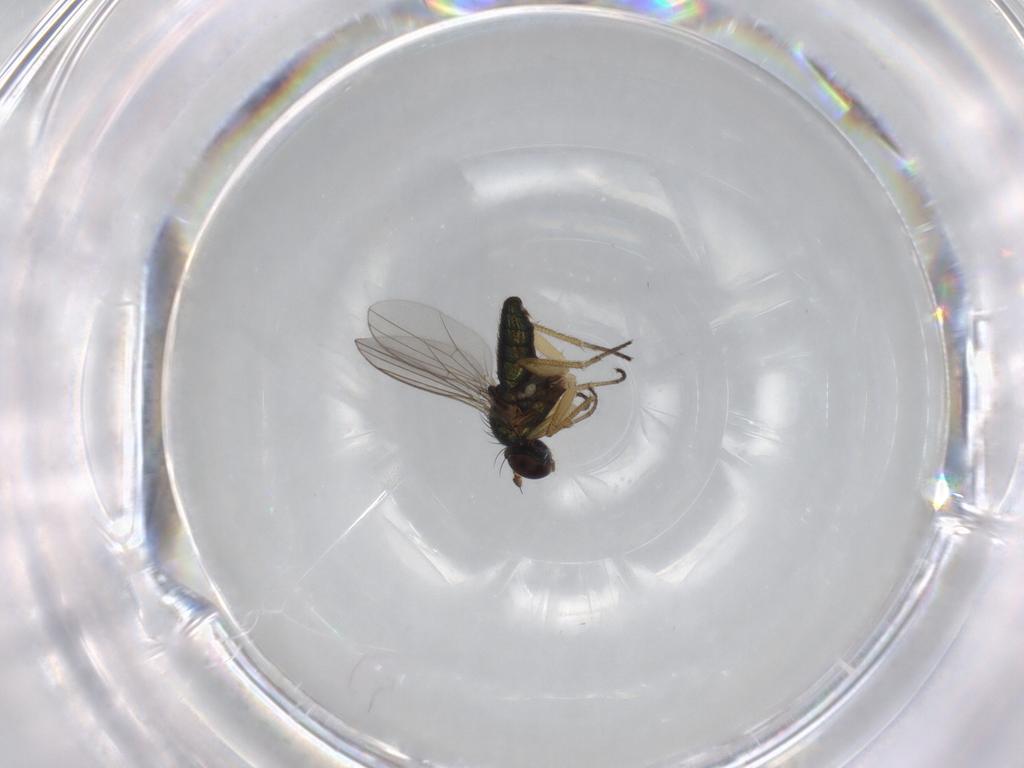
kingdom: Animalia
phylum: Arthropoda
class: Insecta
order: Diptera
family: Dolichopodidae
